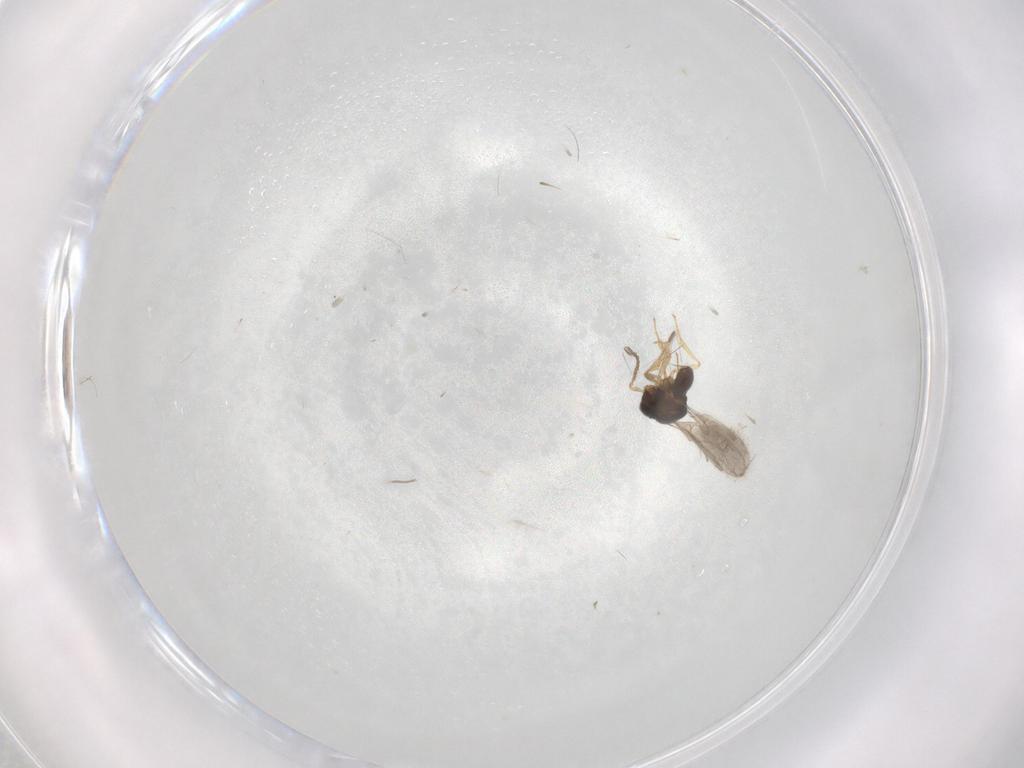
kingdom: Animalia
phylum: Arthropoda
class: Insecta
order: Hymenoptera
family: Scelionidae
